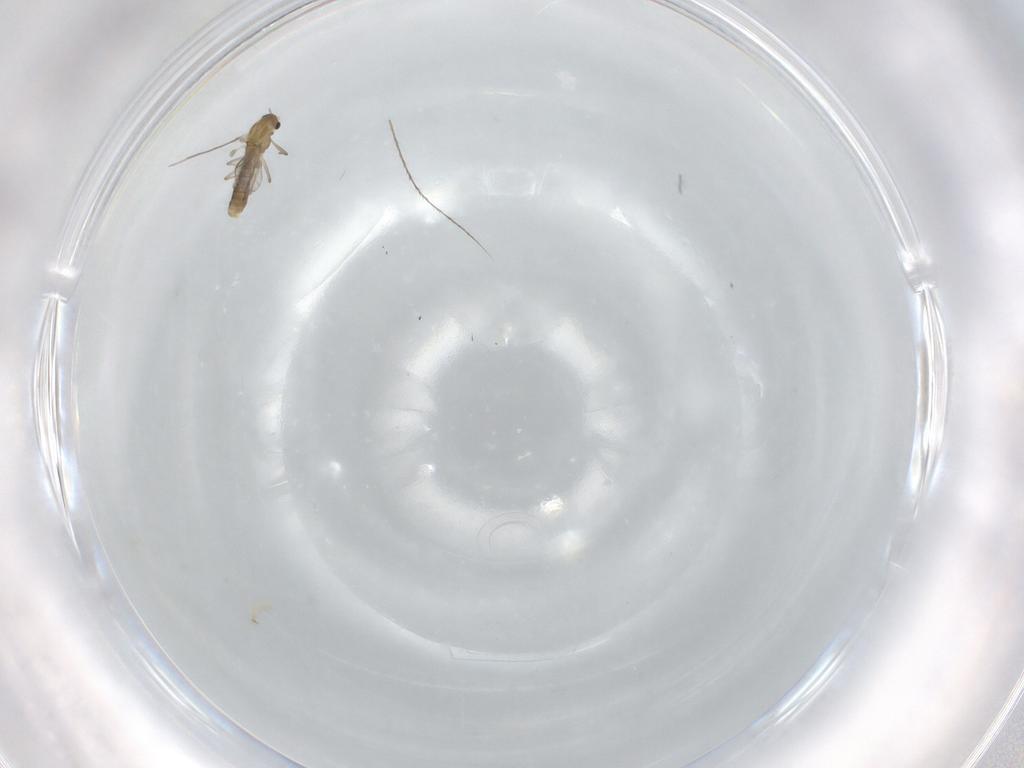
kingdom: Animalia
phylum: Arthropoda
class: Insecta
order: Diptera
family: Chironomidae
